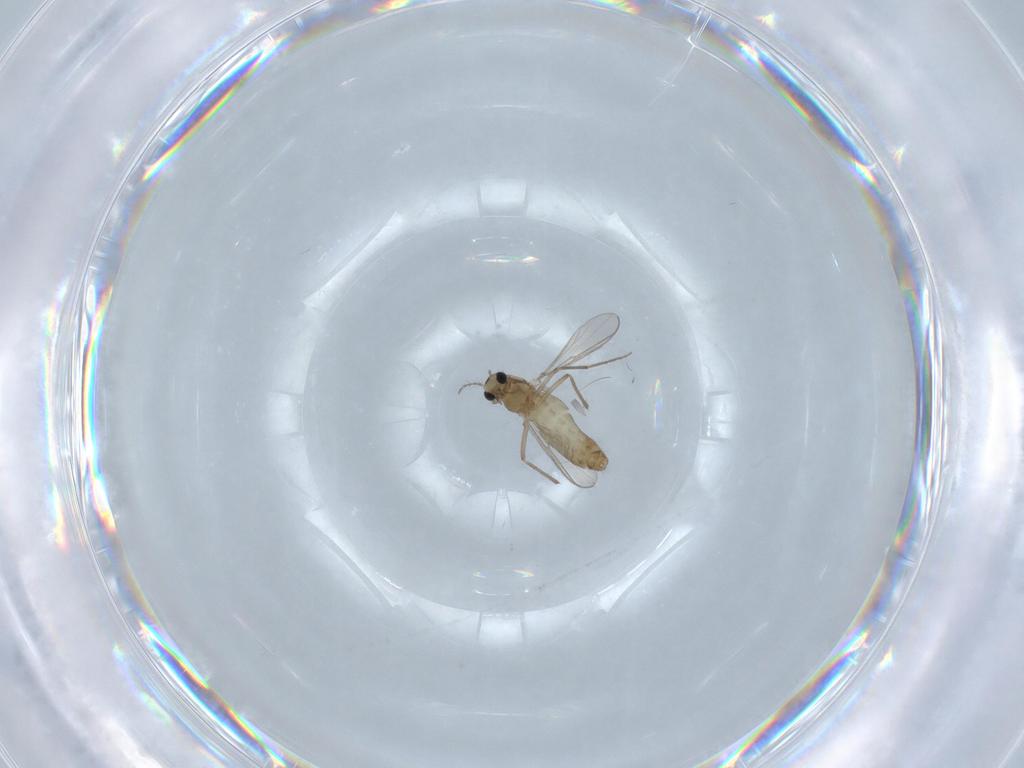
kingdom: Animalia
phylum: Arthropoda
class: Insecta
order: Diptera
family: Chironomidae
